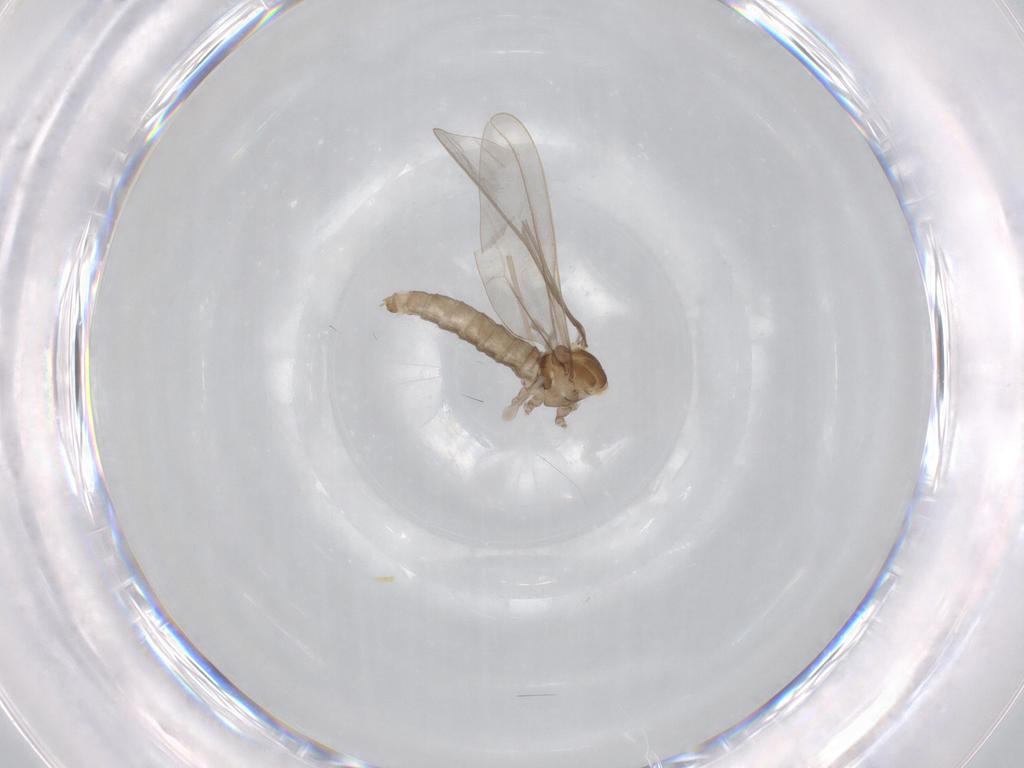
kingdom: Animalia
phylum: Arthropoda
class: Insecta
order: Diptera
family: Cecidomyiidae
